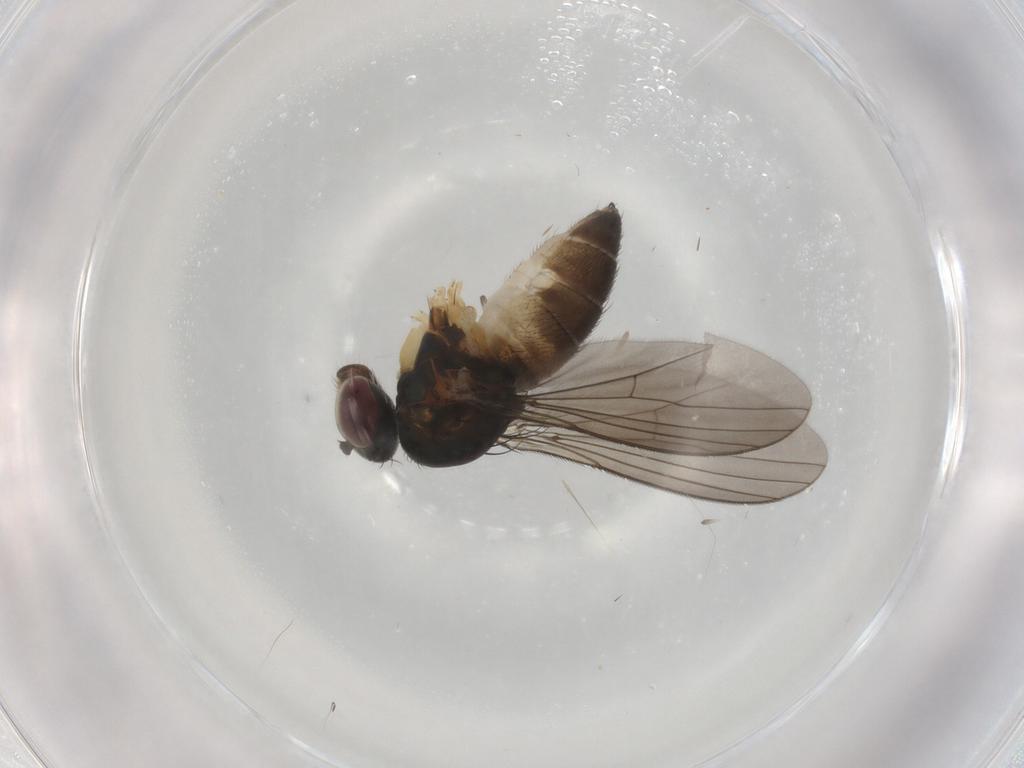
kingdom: Animalia
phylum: Arthropoda
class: Insecta
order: Diptera
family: Dolichopodidae
